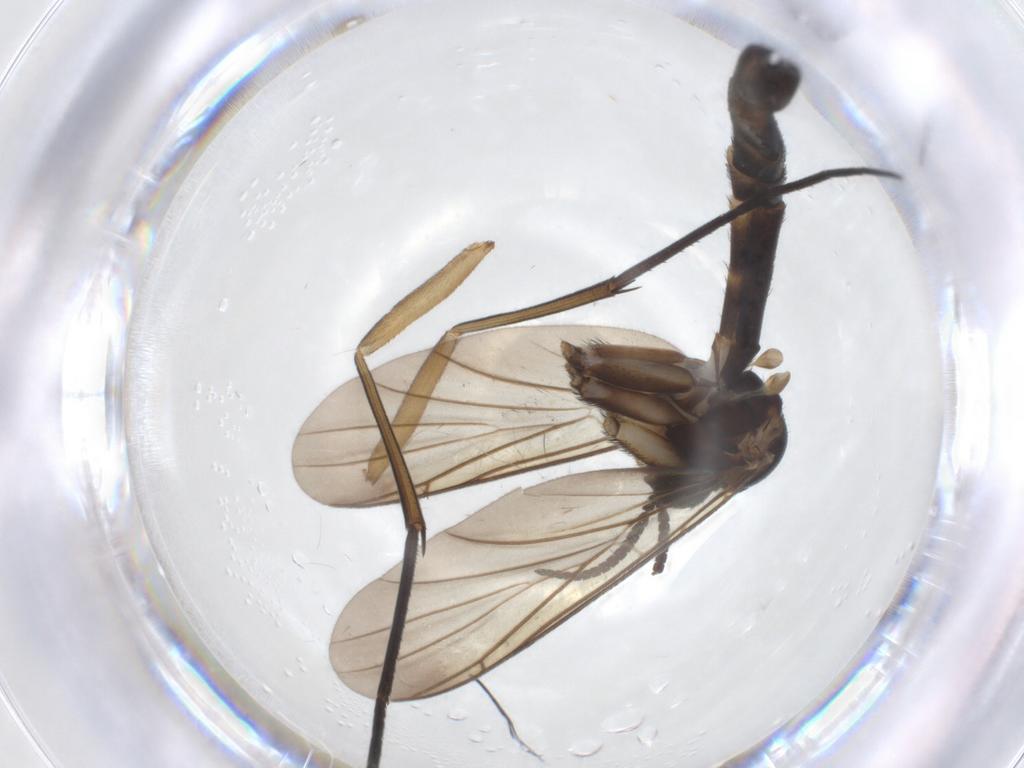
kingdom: Animalia
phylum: Arthropoda
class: Insecta
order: Diptera
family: Keroplatidae
